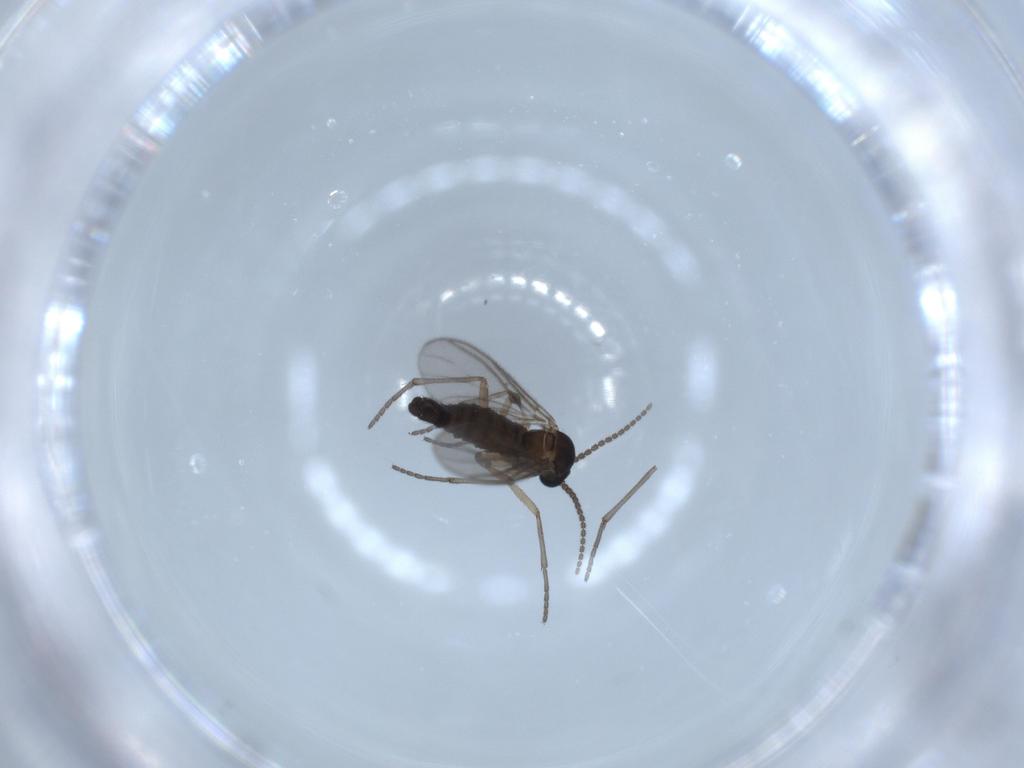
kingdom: Animalia
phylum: Arthropoda
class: Insecta
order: Diptera
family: Sciaridae
